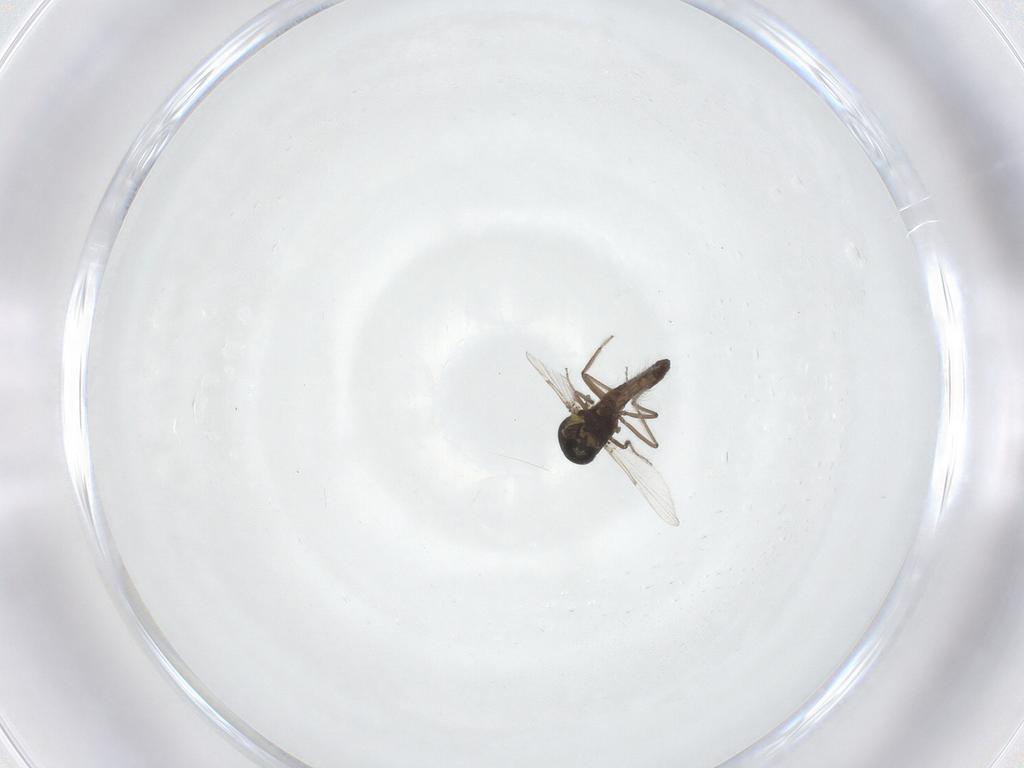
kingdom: Animalia
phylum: Arthropoda
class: Insecta
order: Diptera
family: Ceratopogonidae
